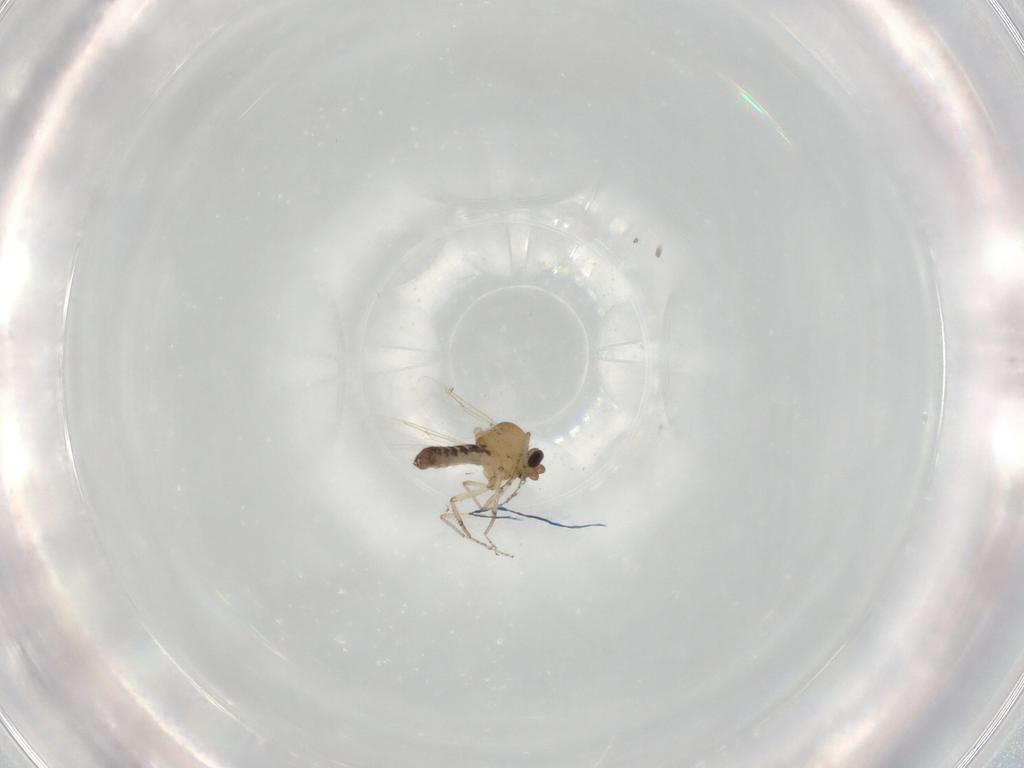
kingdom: Animalia
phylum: Arthropoda
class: Insecta
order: Diptera
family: Ceratopogonidae
